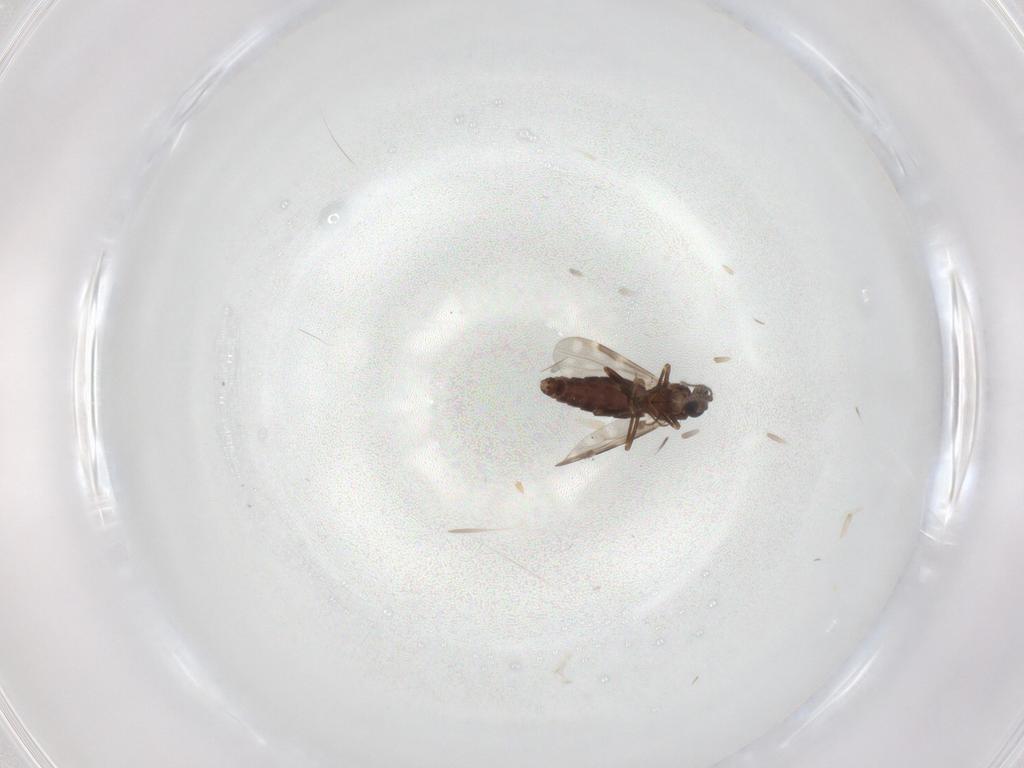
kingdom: Animalia
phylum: Arthropoda
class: Insecta
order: Diptera
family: Ceratopogonidae
